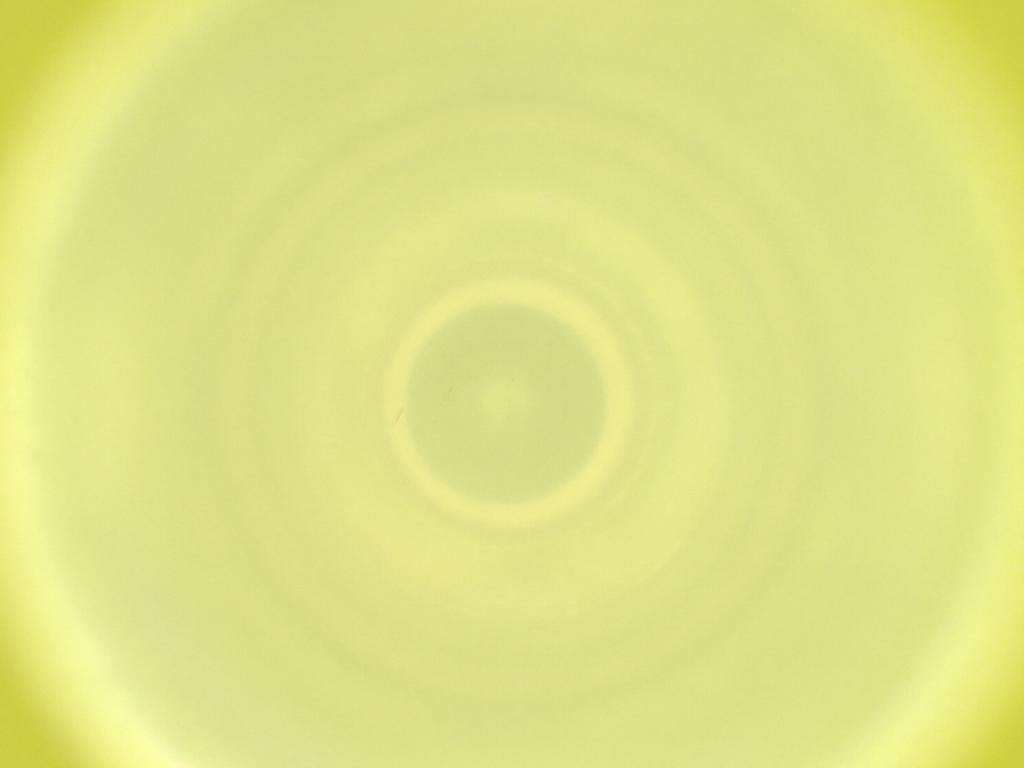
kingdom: Animalia
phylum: Arthropoda
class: Insecta
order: Diptera
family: Cecidomyiidae
